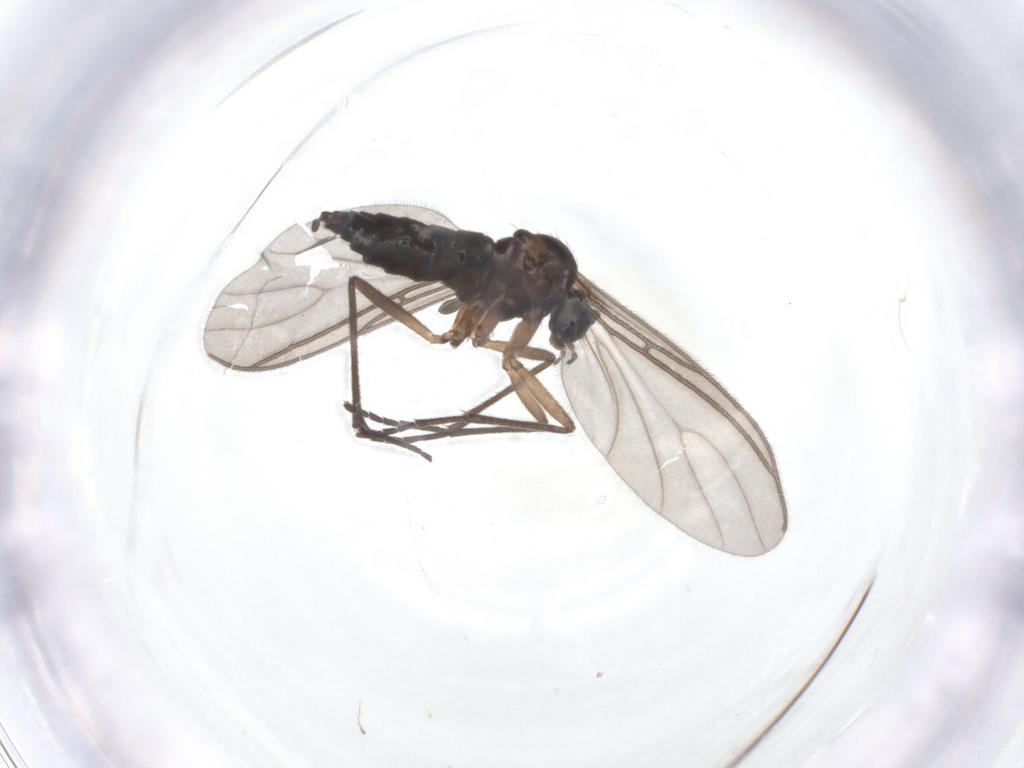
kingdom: Animalia
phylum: Arthropoda
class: Insecta
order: Diptera
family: Sciaridae
